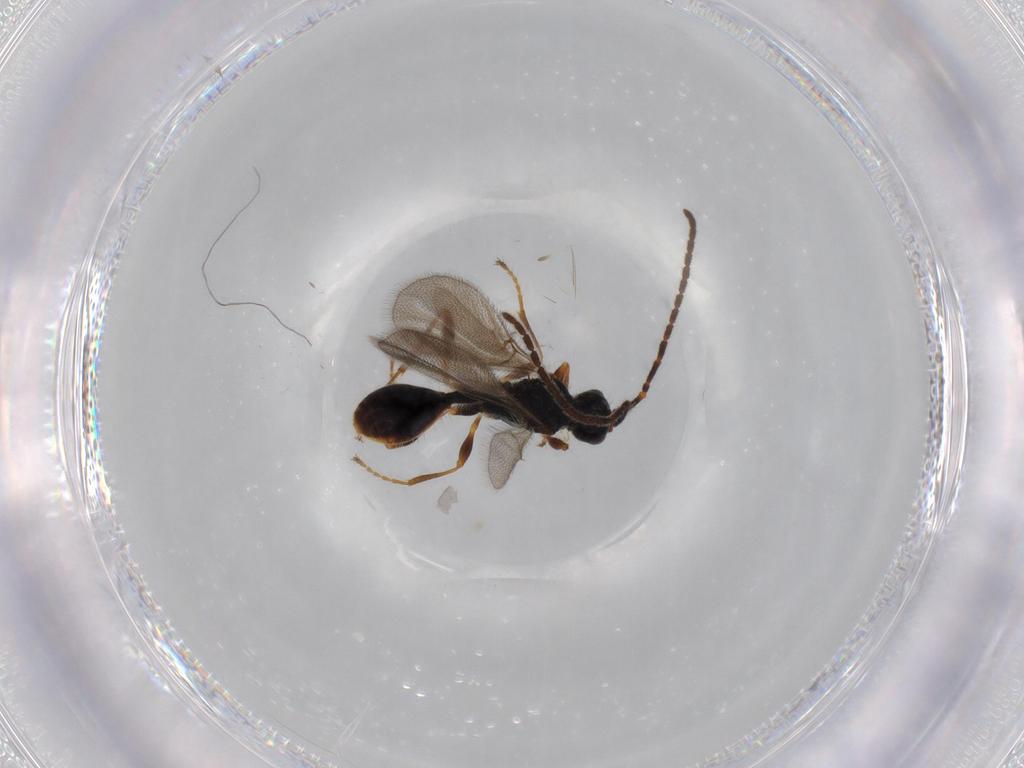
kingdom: Animalia
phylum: Arthropoda
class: Insecta
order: Hymenoptera
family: Diapriidae
